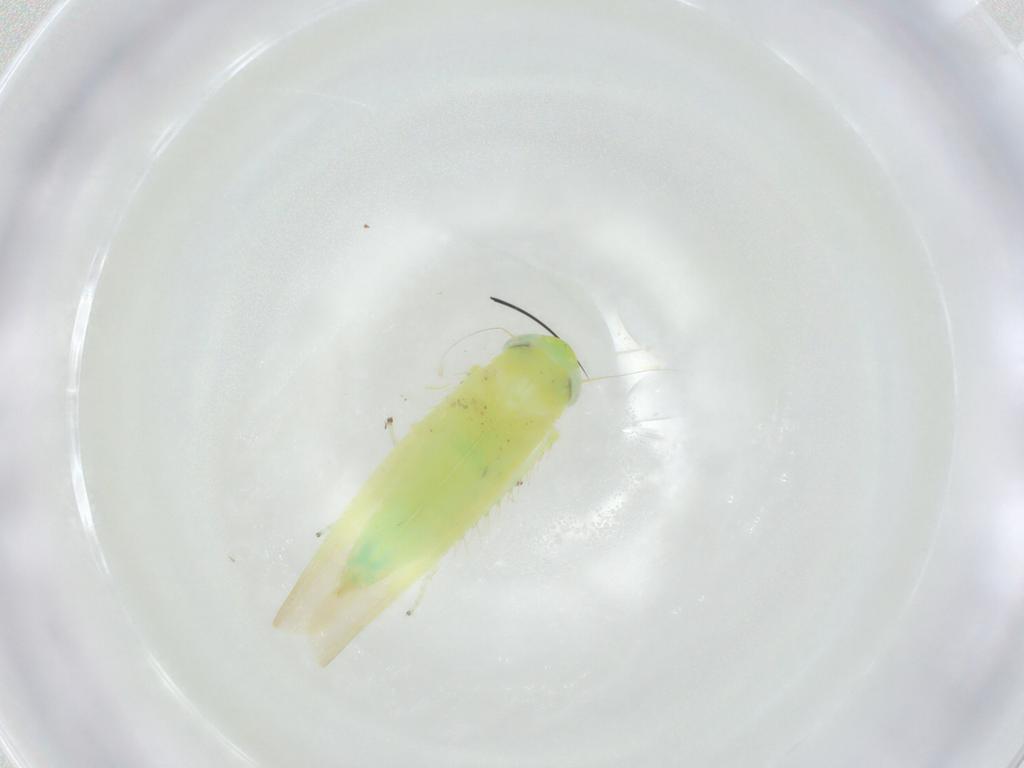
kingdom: Animalia
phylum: Arthropoda
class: Insecta
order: Hemiptera
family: Cicadellidae
